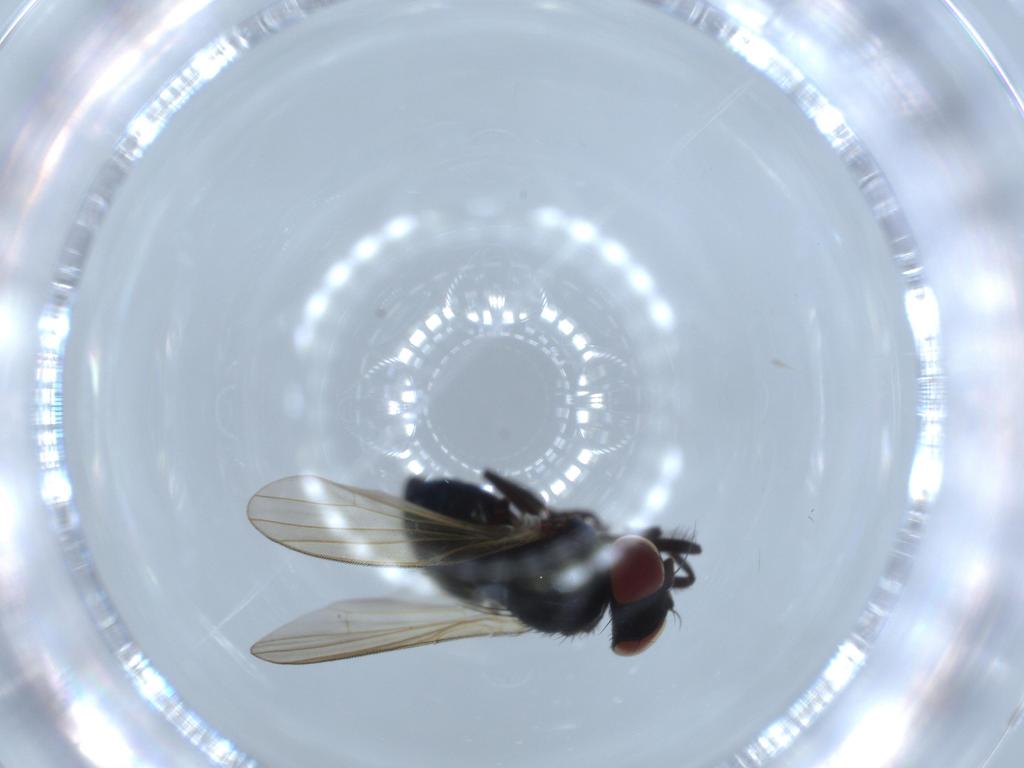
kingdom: Animalia
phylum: Arthropoda
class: Insecta
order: Diptera
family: Lonchaeidae
